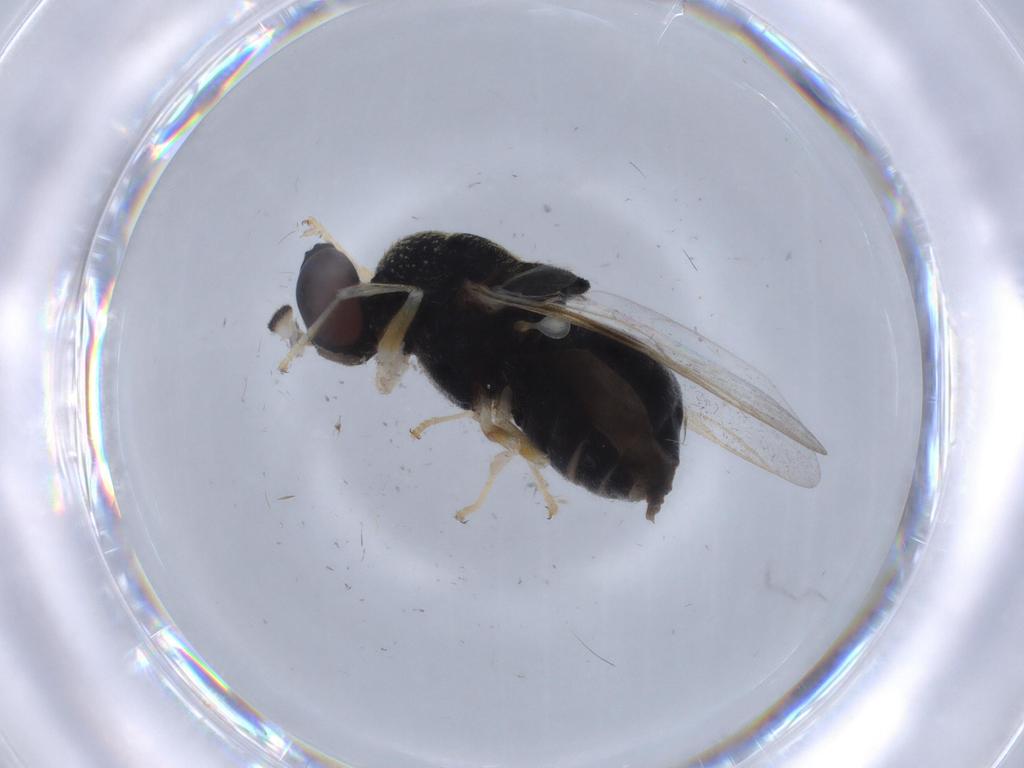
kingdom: Animalia
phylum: Arthropoda
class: Insecta
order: Diptera
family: Stratiomyidae
